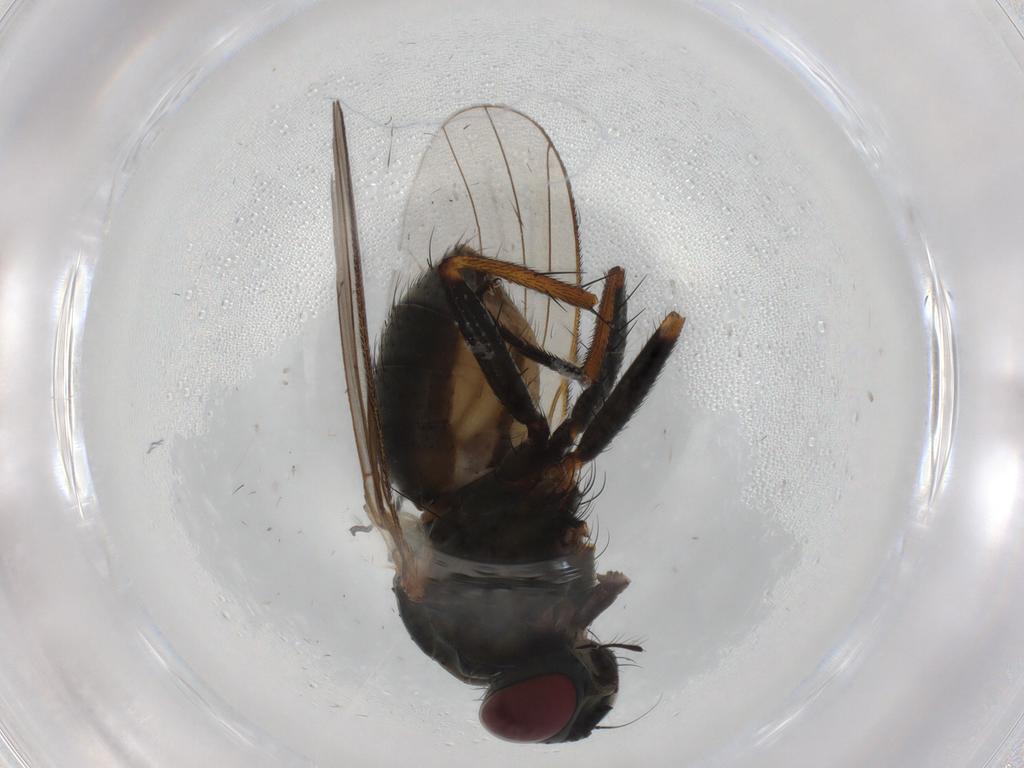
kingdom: Animalia
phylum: Arthropoda
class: Insecta
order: Diptera
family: Muscidae
